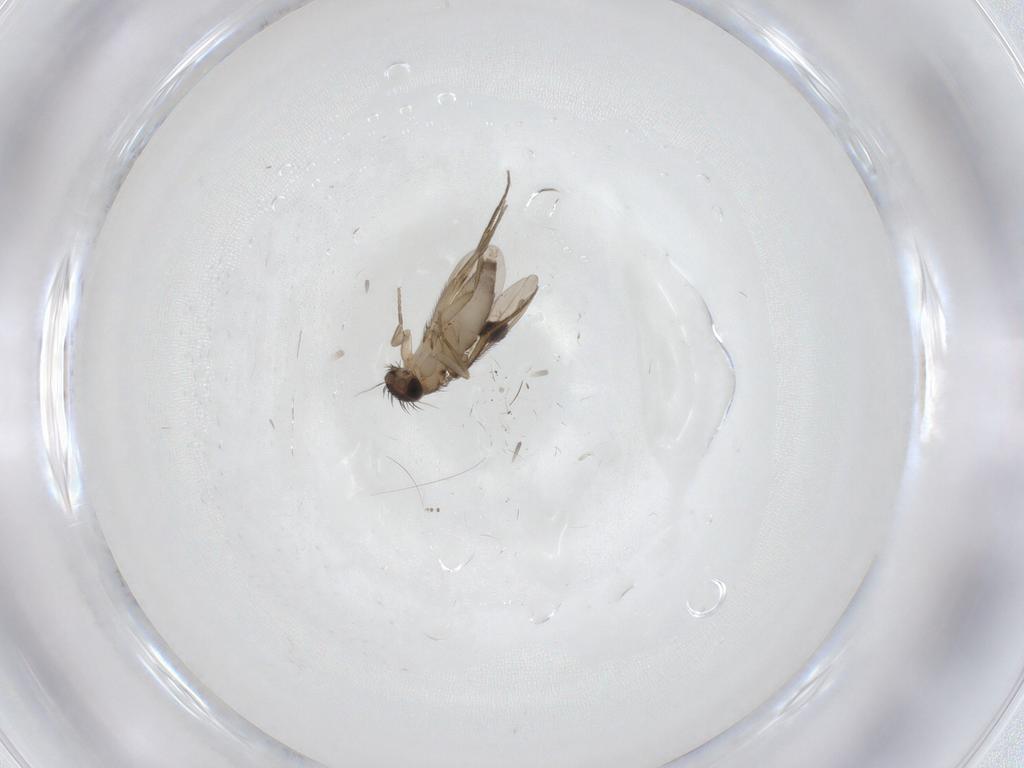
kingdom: Animalia
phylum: Arthropoda
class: Insecta
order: Diptera
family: Phoridae
